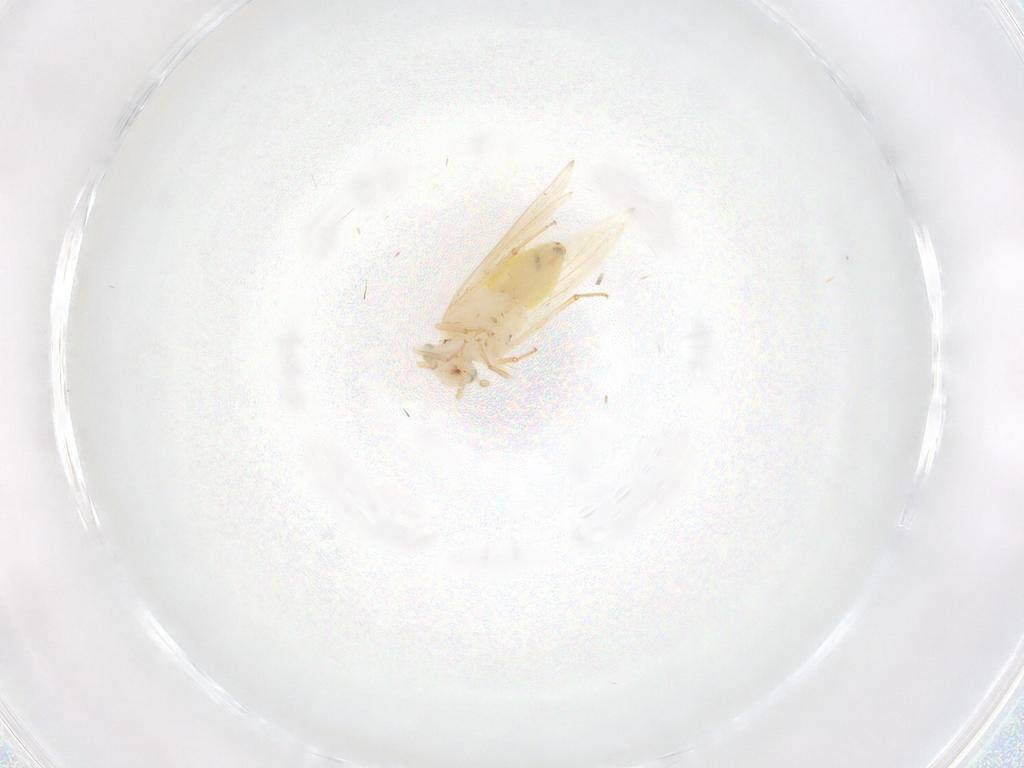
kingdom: Animalia
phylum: Arthropoda
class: Insecta
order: Psocodea
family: Lepidopsocidae
